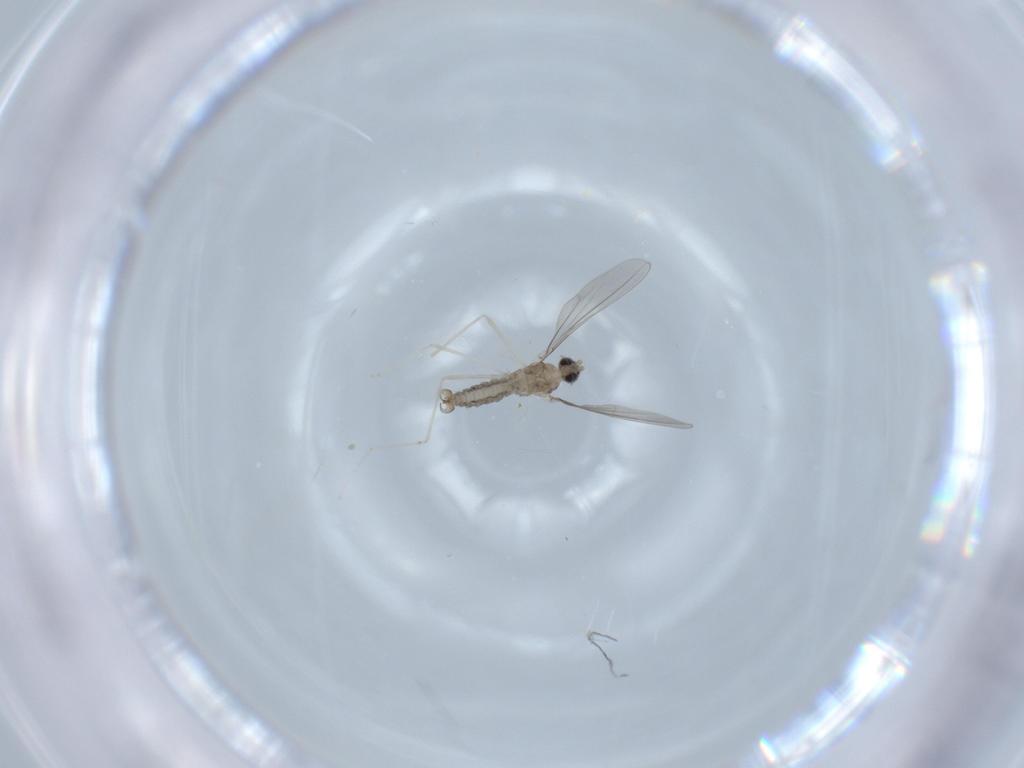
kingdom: Animalia
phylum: Arthropoda
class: Insecta
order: Diptera
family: Cecidomyiidae
